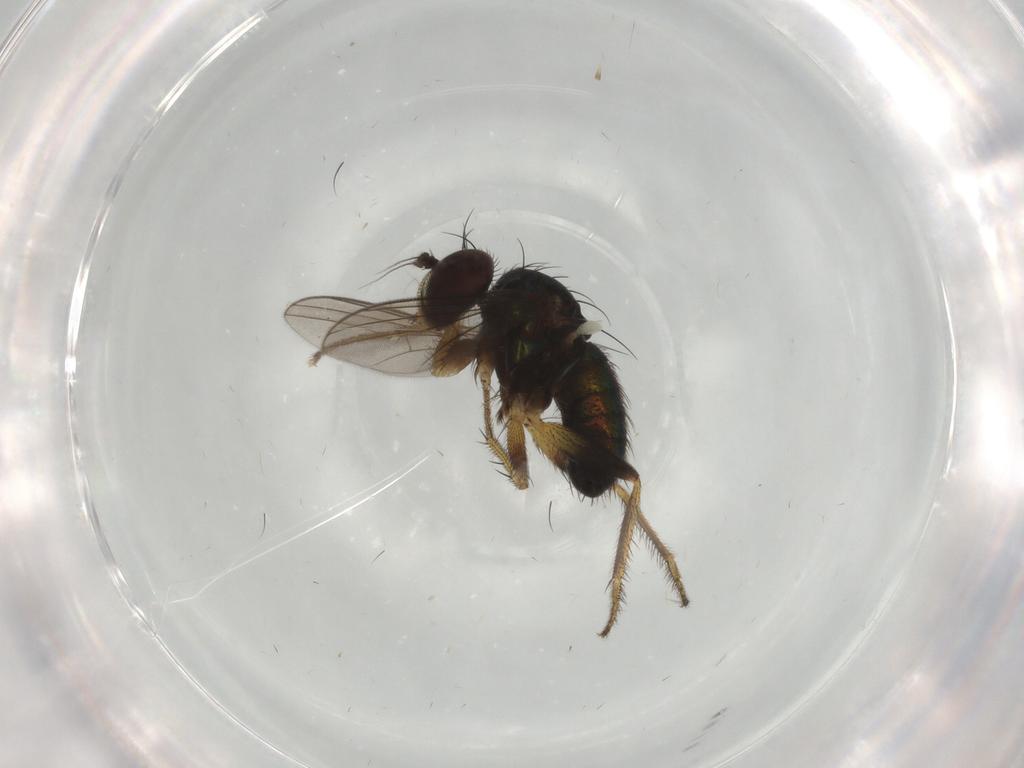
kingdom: Animalia
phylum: Arthropoda
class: Insecta
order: Diptera
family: Dolichopodidae
